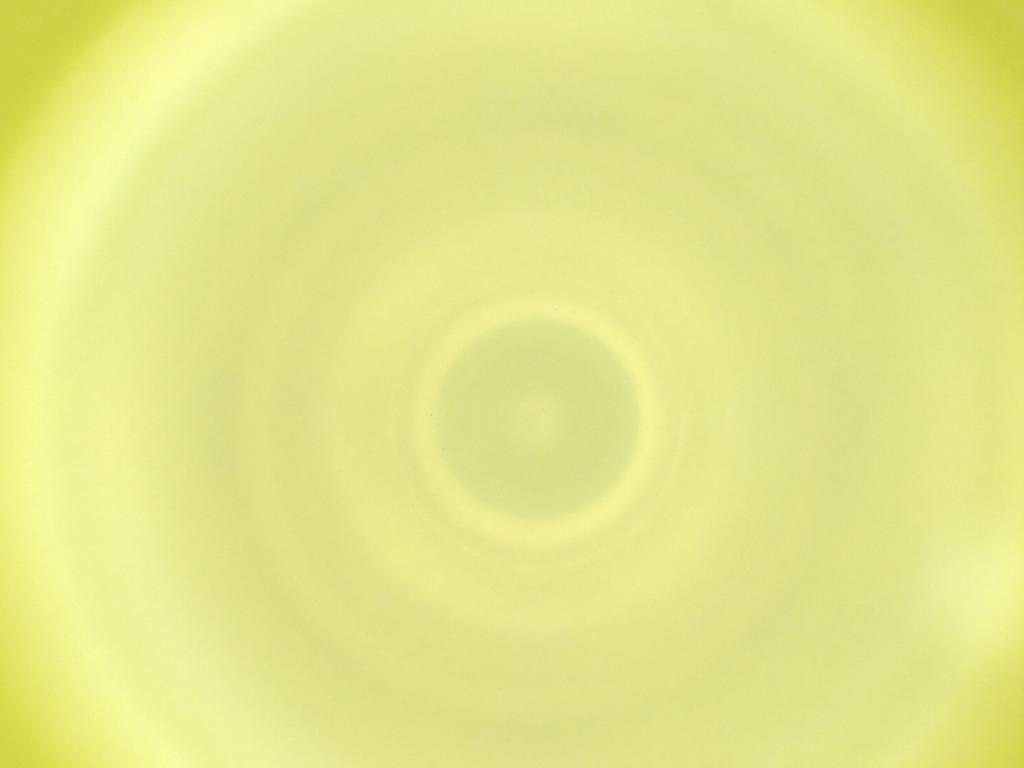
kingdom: Animalia
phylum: Arthropoda
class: Insecta
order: Diptera
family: Cecidomyiidae
